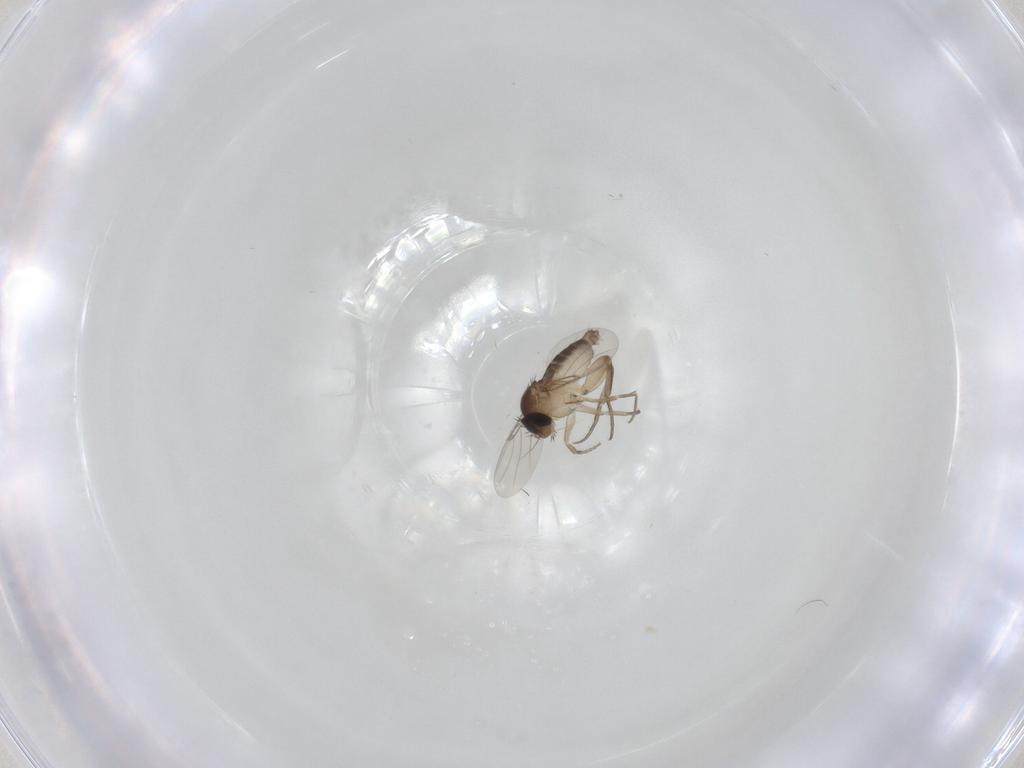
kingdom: Animalia
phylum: Arthropoda
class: Insecta
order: Diptera
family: Phoridae
